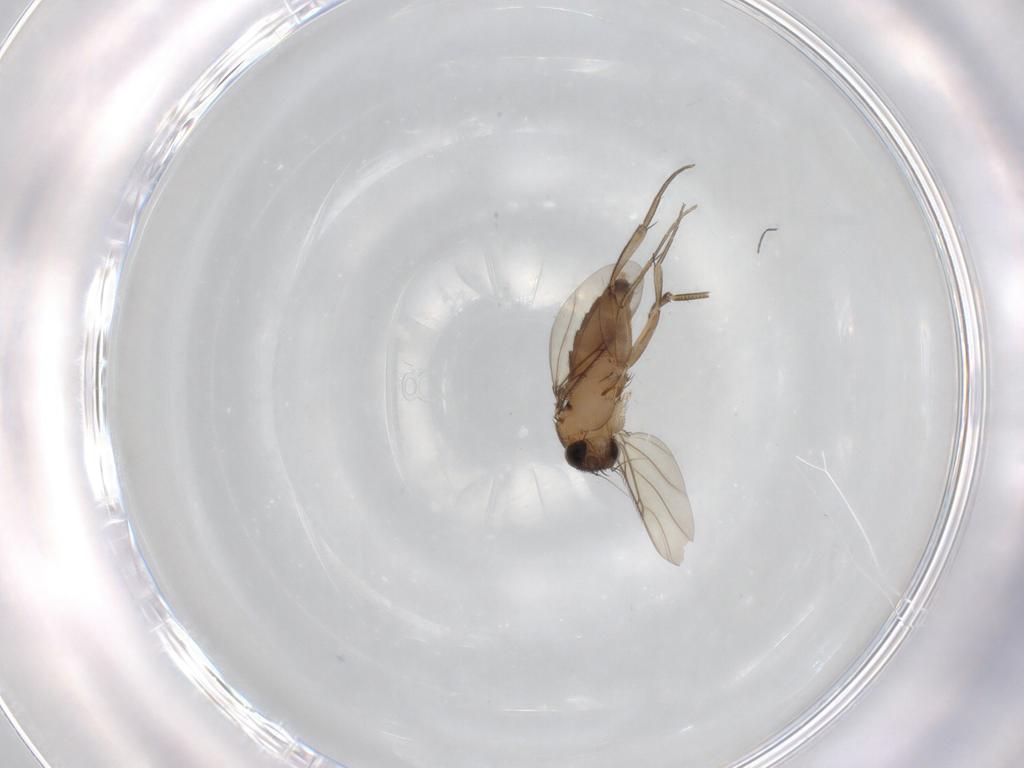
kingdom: Animalia
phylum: Arthropoda
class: Insecta
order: Diptera
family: Phoridae
